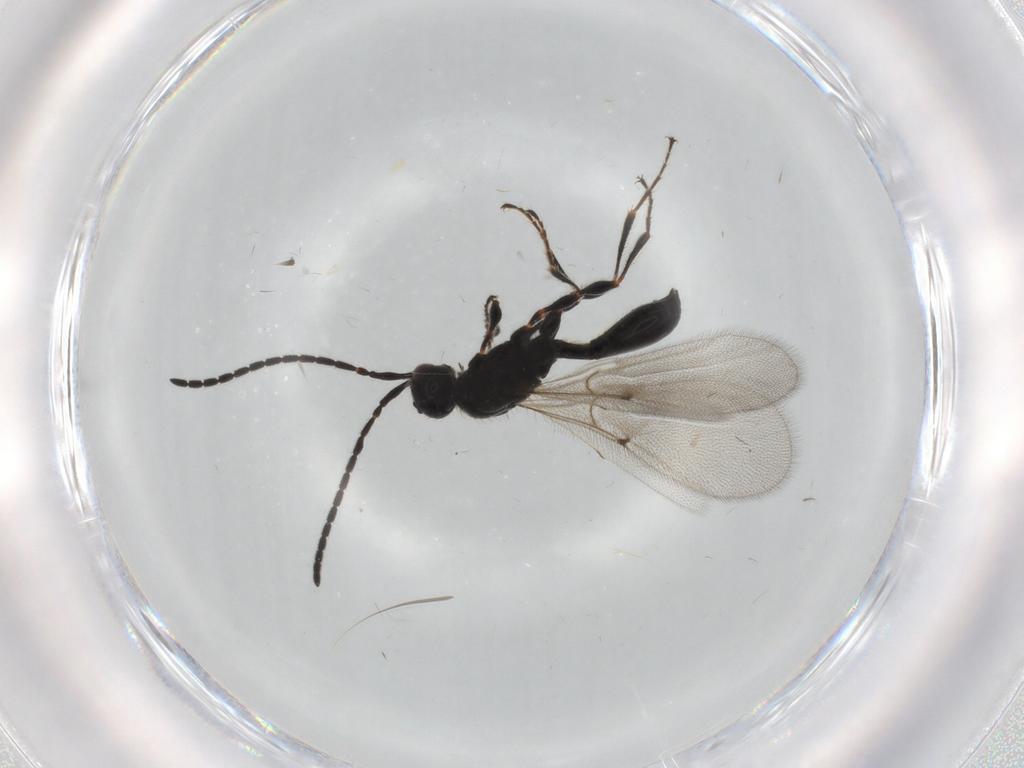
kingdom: Animalia
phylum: Arthropoda
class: Insecta
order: Hymenoptera
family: Diapriidae
